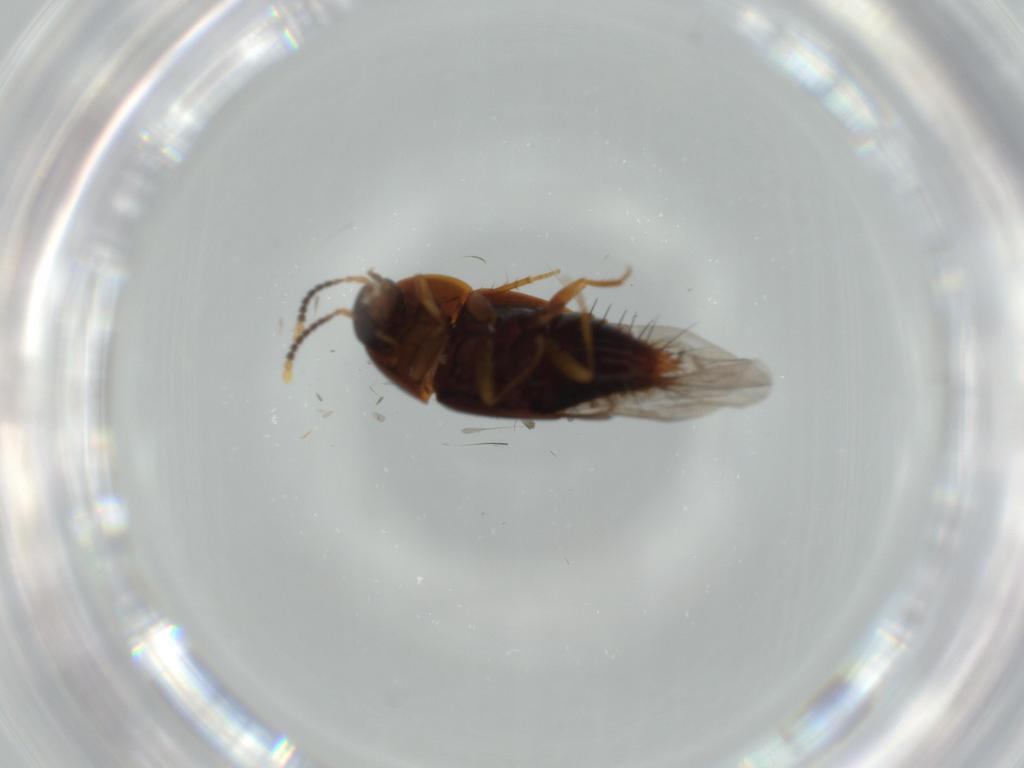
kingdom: Animalia
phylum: Arthropoda
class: Insecta
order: Coleoptera
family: Staphylinidae
